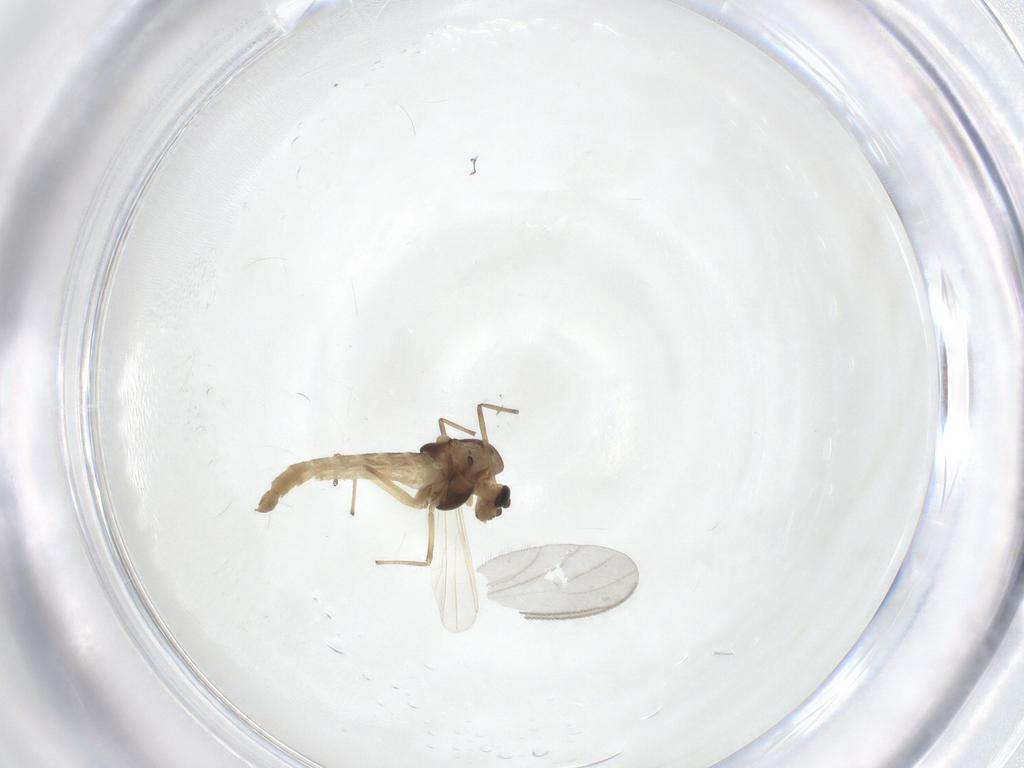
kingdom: Animalia
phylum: Arthropoda
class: Insecta
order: Diptera
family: Chironomidae
